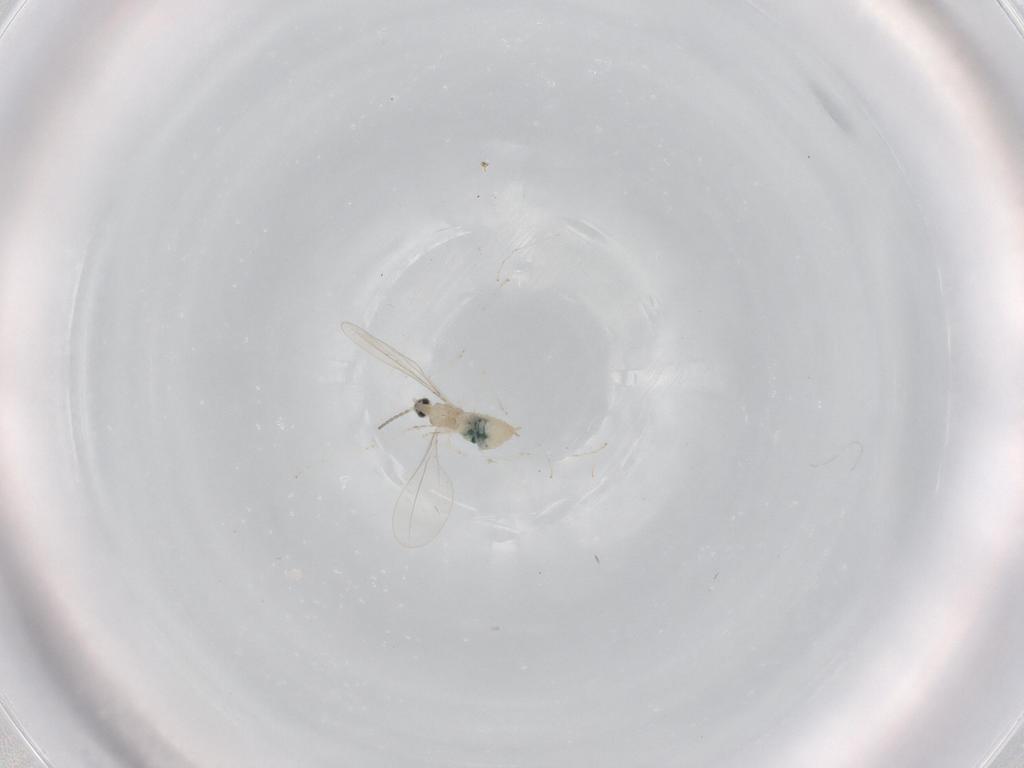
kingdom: Animalia
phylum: Arthropoda
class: Insecta
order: Diptera
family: Cecidomyiidae
